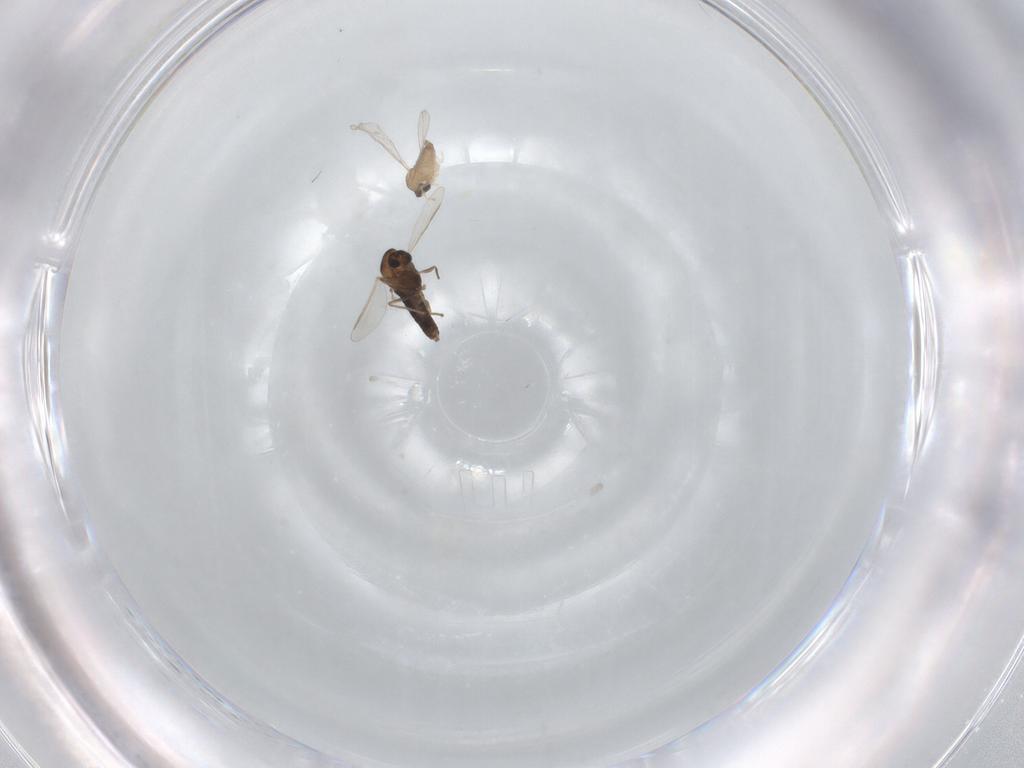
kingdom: Animalia
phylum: Arthropoda
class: Insecta
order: Diptera
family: Cecidomyiidae
